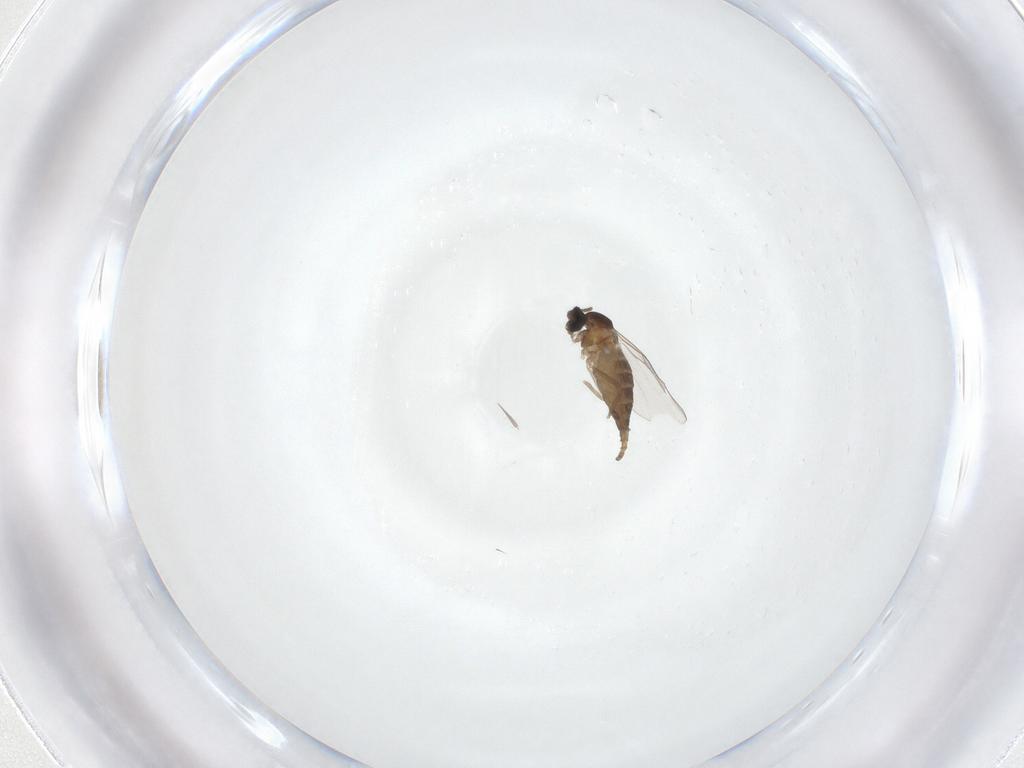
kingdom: Animalia
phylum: Arthropoda
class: Insecta
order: Diptera
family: Cecidomyiidae
